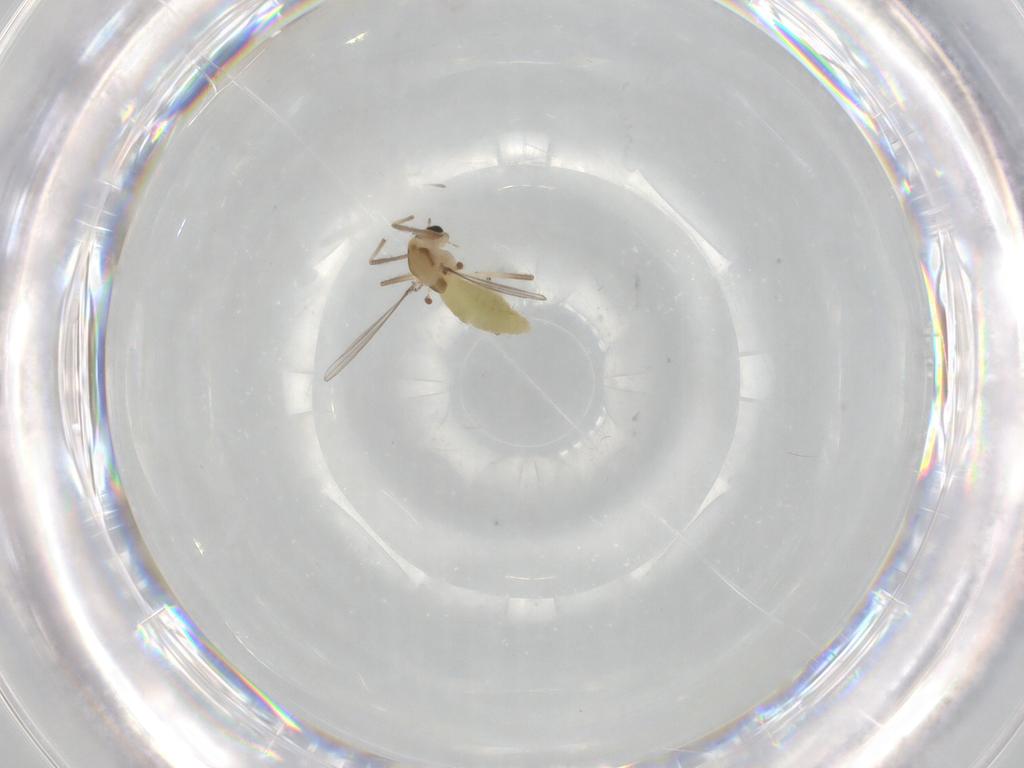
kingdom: Animalia
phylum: Arthropoda
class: Insecta
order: Diptera
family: Chironomidae
